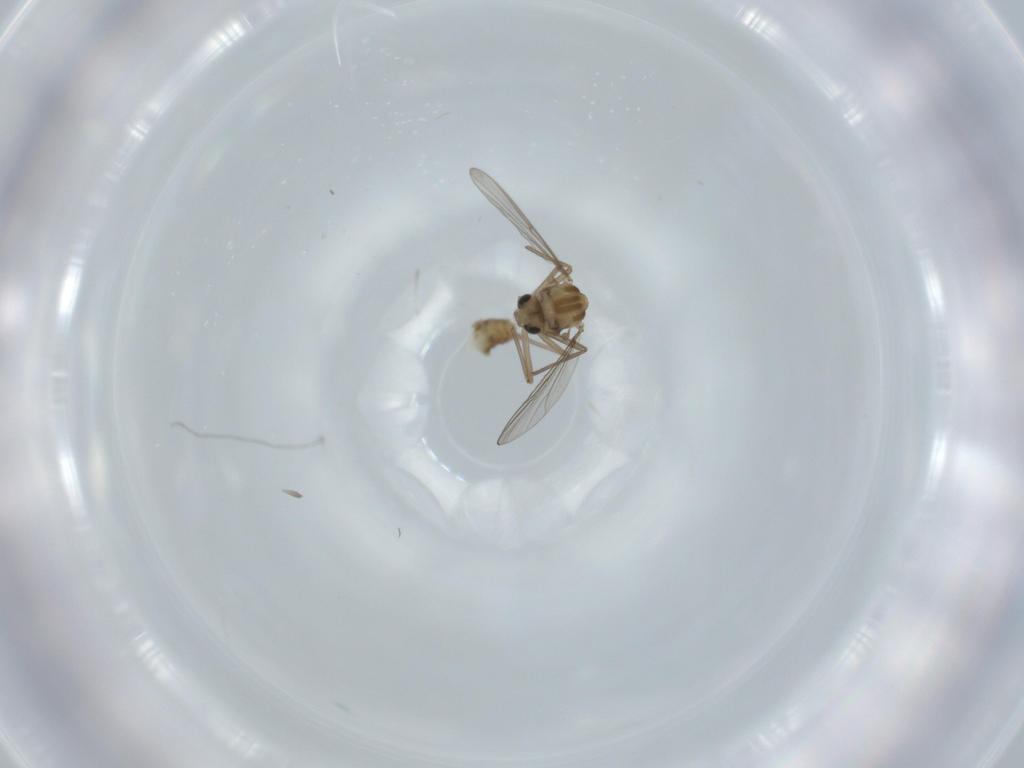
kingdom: Animalia
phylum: Arthropoda
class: Insecta
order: Diptera
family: Chironomidae
